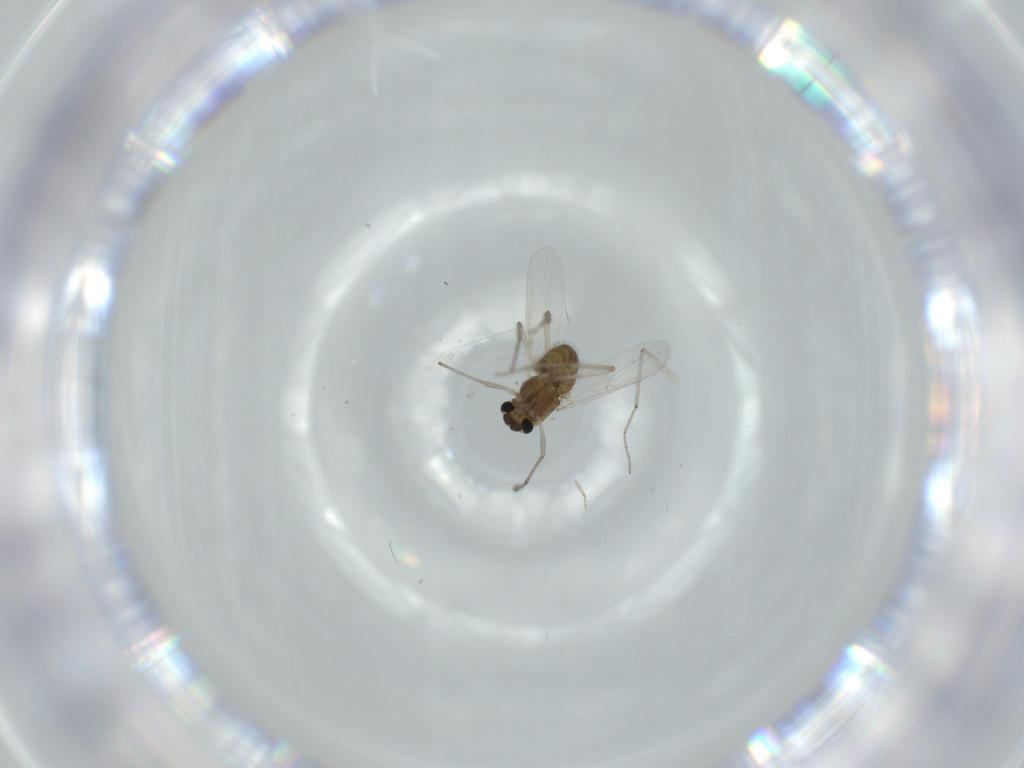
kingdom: Animalia
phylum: Arthropoda
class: Insecta
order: Diptera
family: Chironomidae
